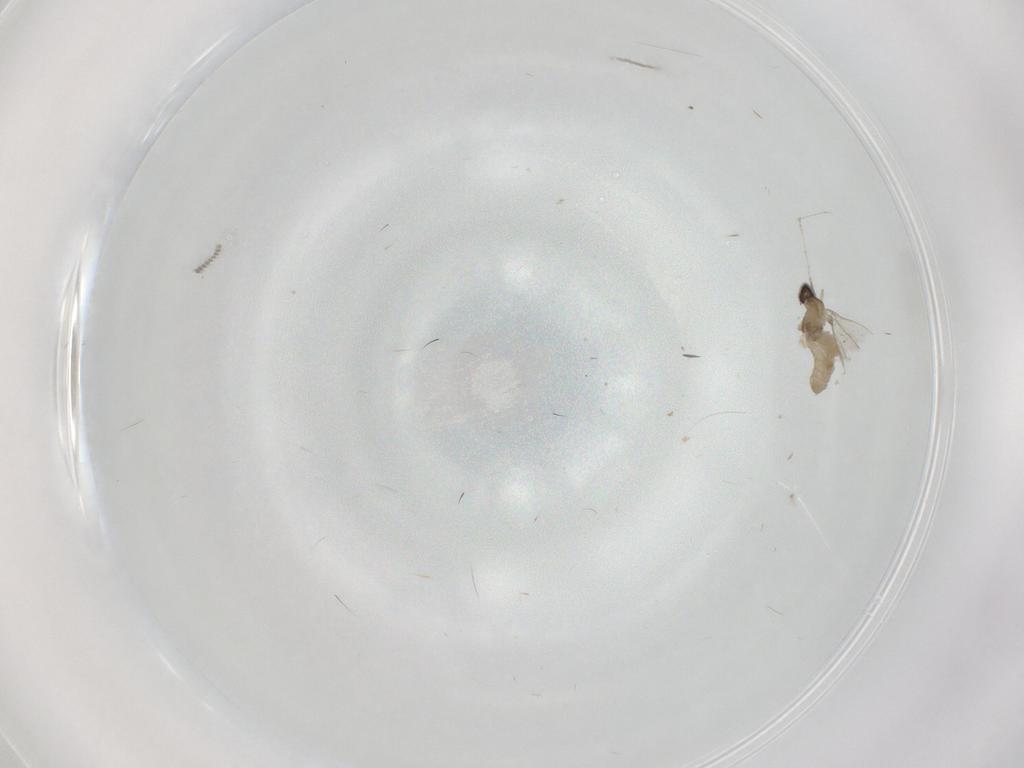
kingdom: Animalia
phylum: Arthropoda
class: Insecta
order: Diptera
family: Cecidomyiidae
